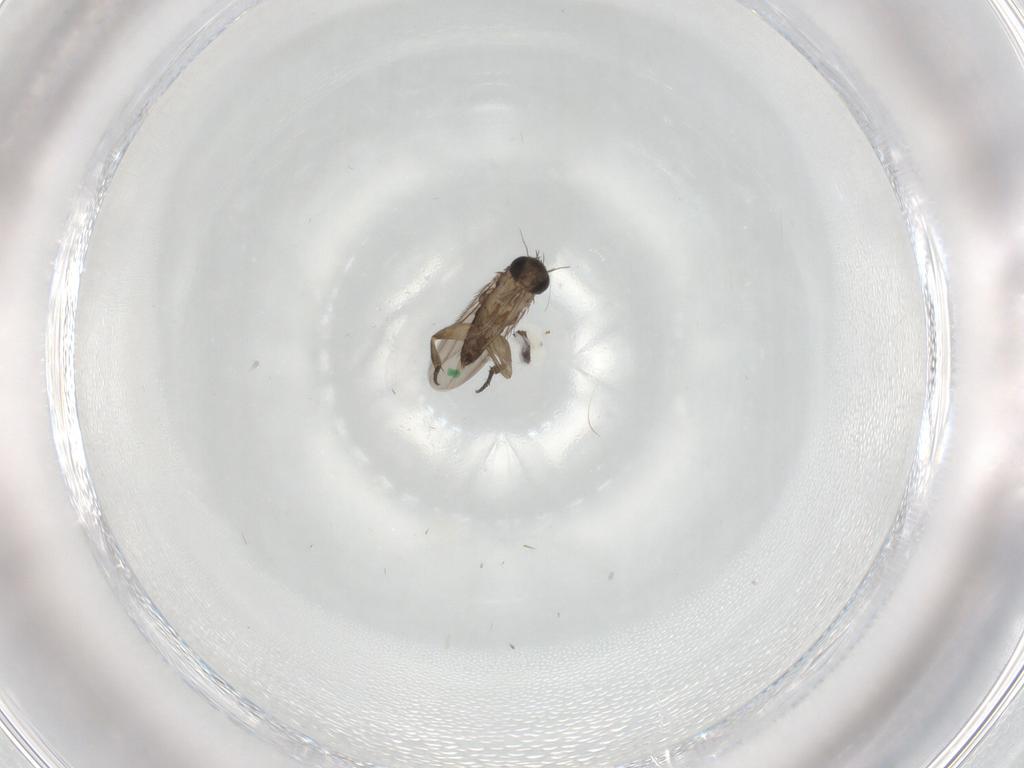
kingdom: Animalia
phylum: Arthropoda
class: Insecta
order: Diptera
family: Phoridae
